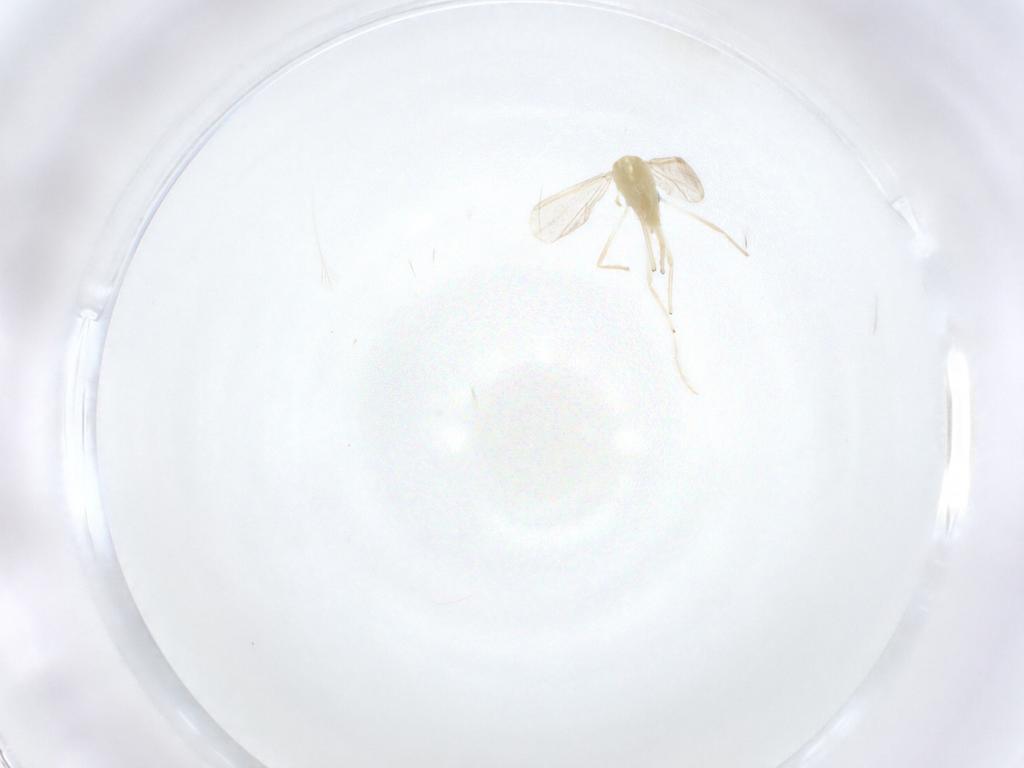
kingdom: Animalia
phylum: Arthropoda
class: Insecta
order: Diptera
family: Chironomidae
